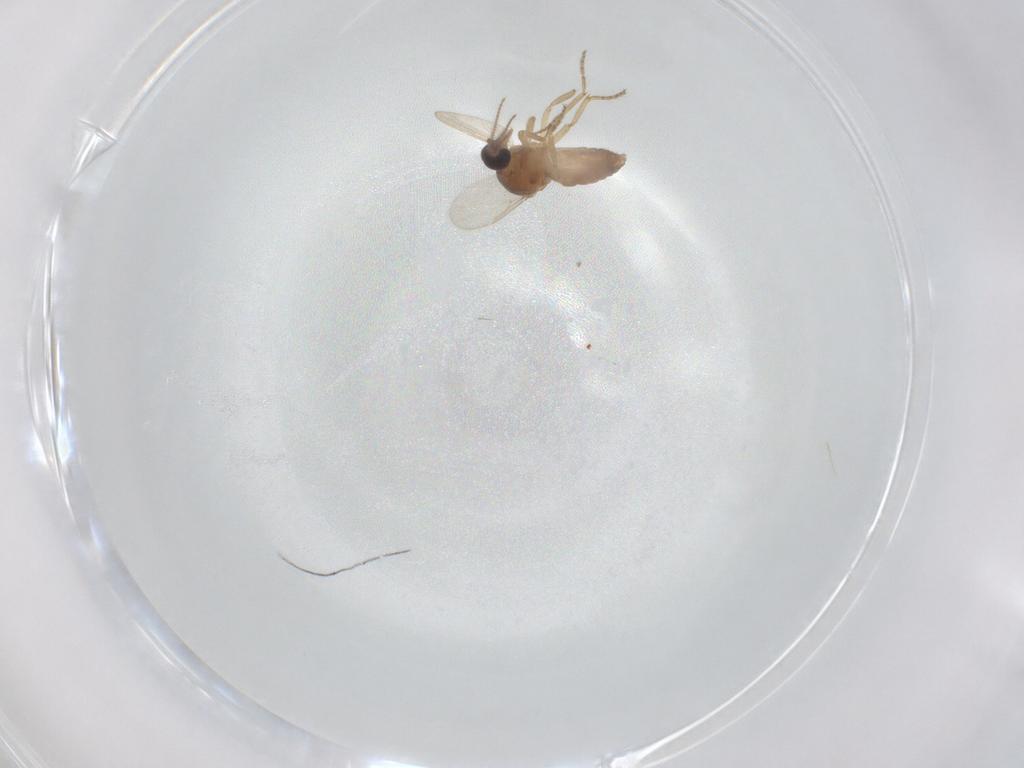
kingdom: Animalia
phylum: Arthropoda
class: Insecta
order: Diptera
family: Ceratopogonidae
